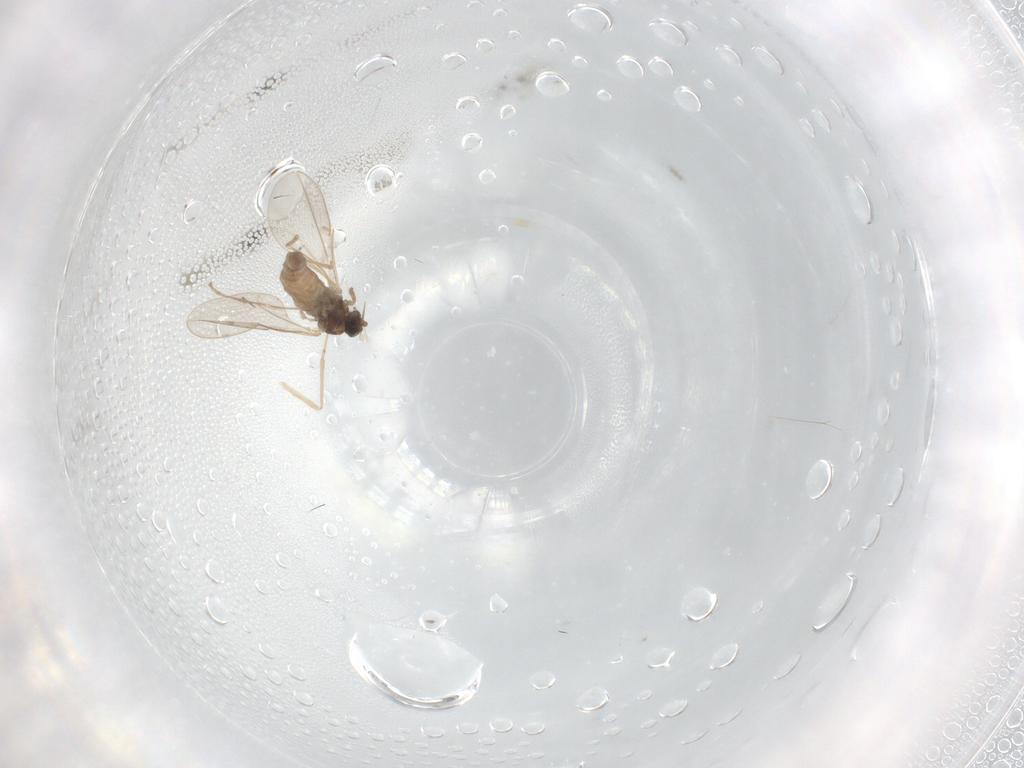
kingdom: Animalia
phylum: Arthropoda
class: Insecta
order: Diptera
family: Cecidomyiidae
